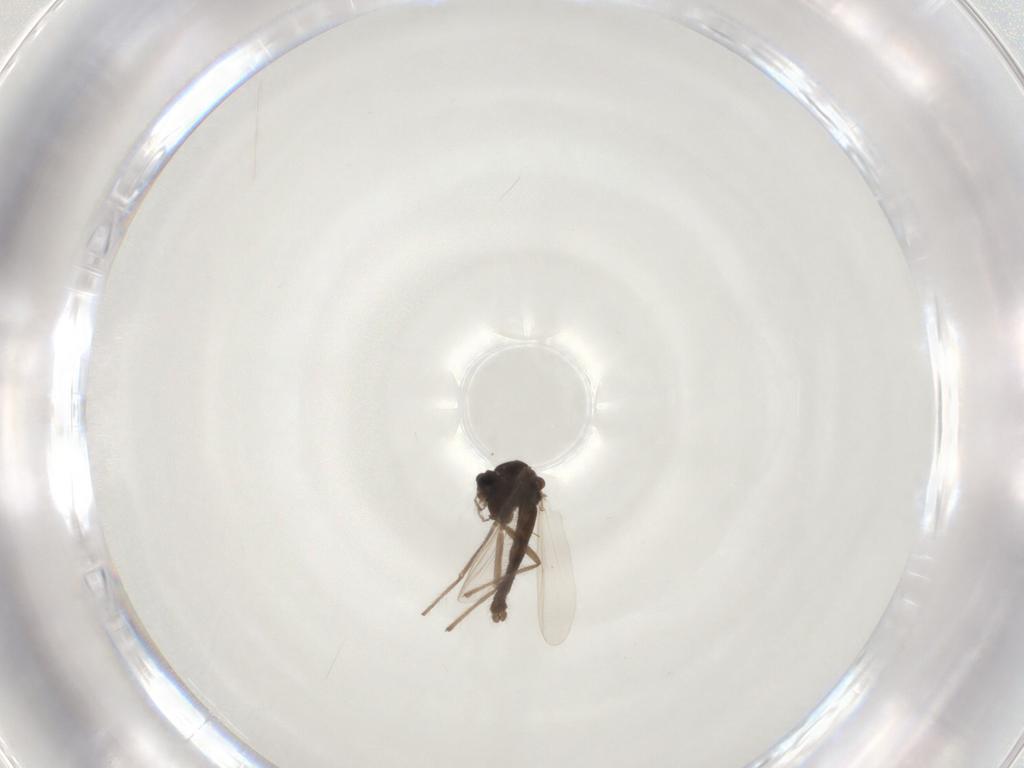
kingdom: Animalia
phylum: Arthropoda
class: Insecta
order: Diptera
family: Chironomidae
